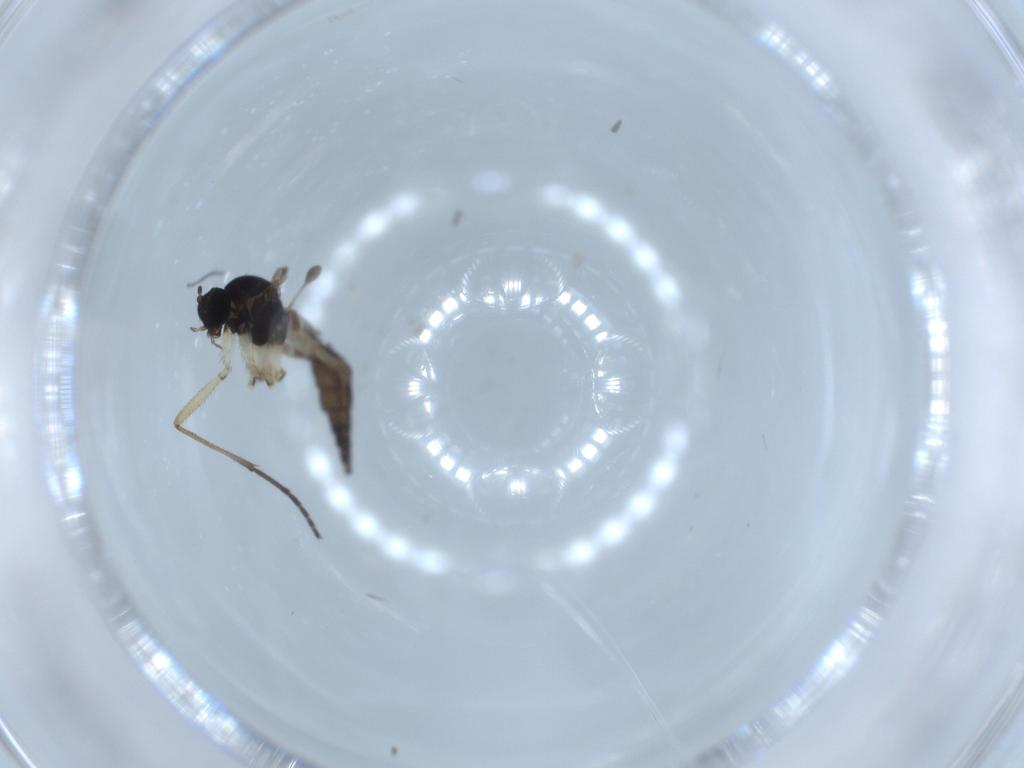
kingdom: Animalia
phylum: Arthropoda
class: Insecta
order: Diptera
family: Sciaridae
